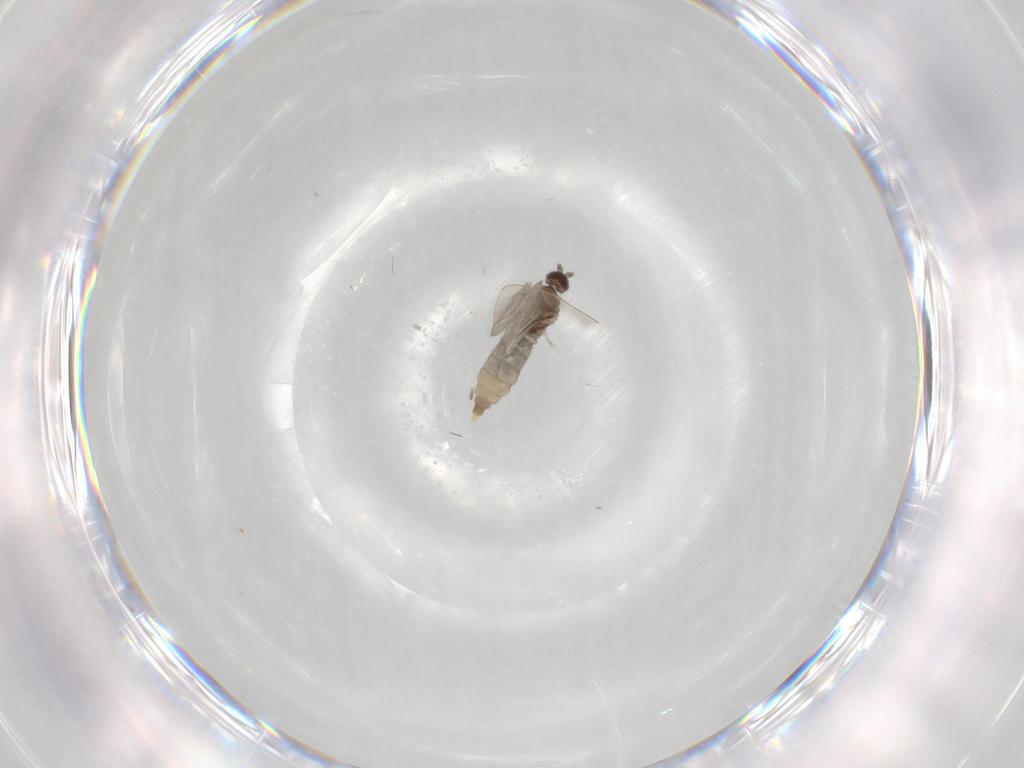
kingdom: Animalia
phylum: Arthropoda
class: Insecta
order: Diptera
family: Cecidomyiidae
